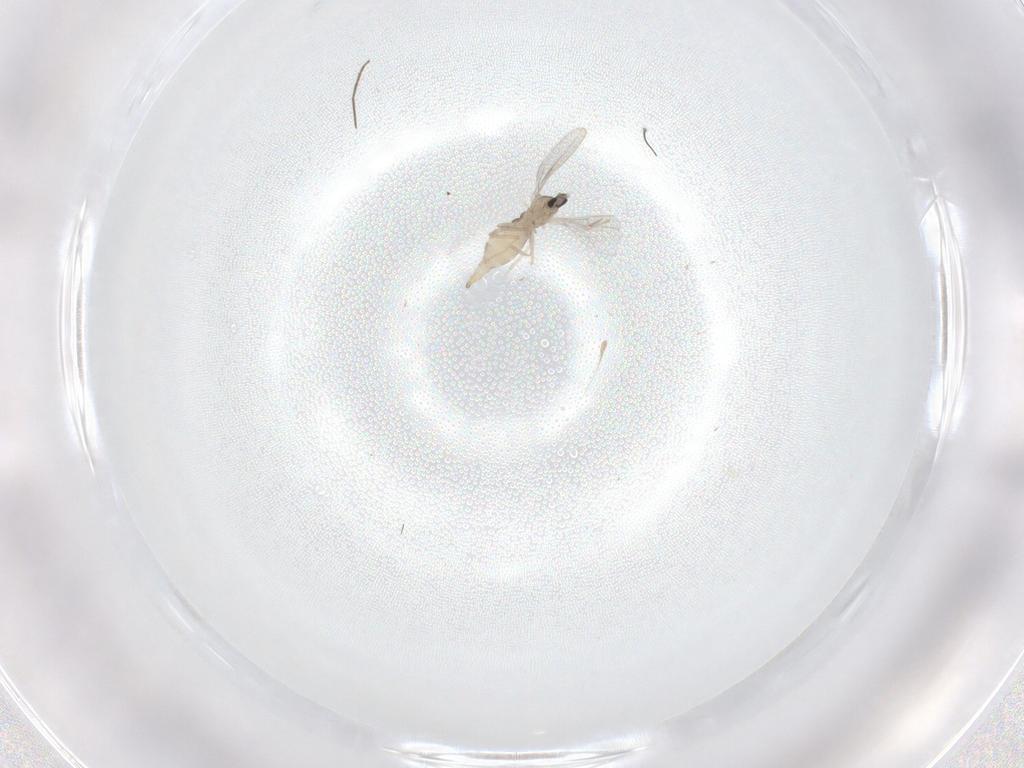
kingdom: Animalia
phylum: Arthropoda
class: Insecta
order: Diptera
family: Cecidomyiidae
